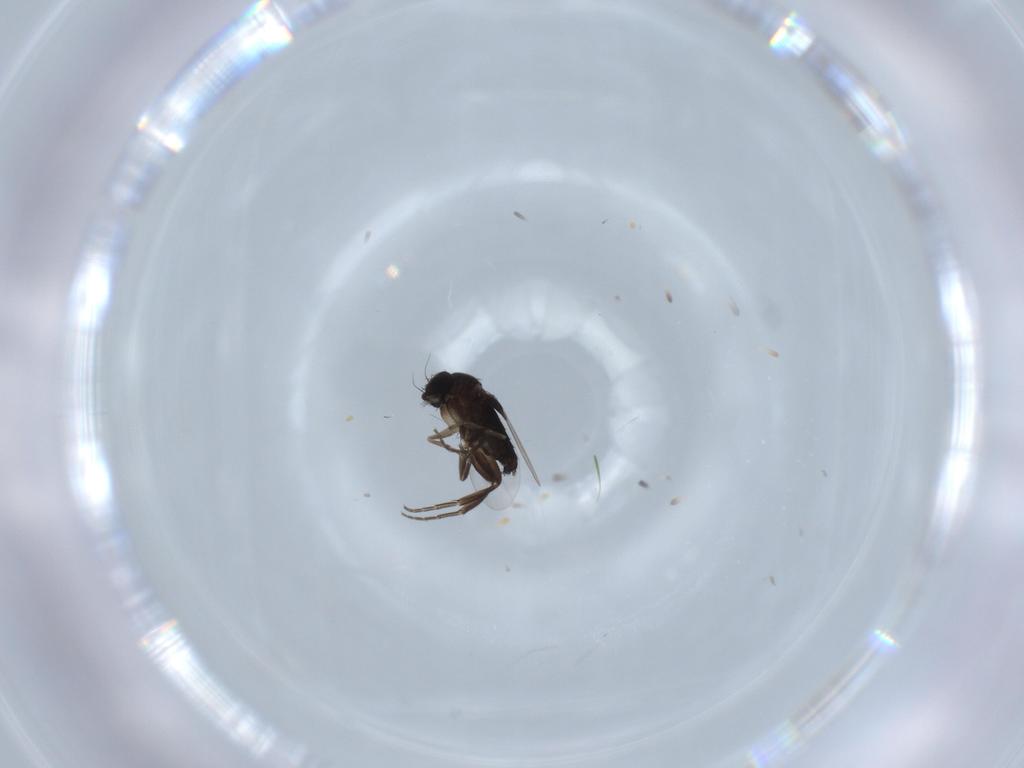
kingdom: Animalia
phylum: Arthropoda
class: Insecta
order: Diptera
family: Phoridae
